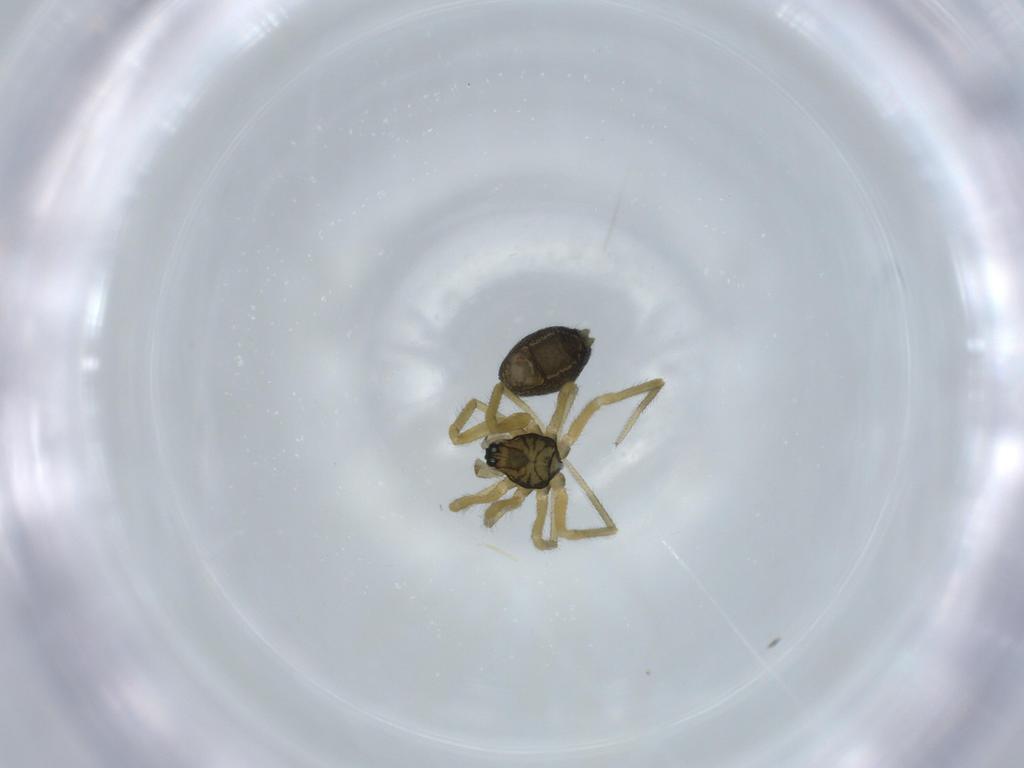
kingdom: Animalia
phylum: Arthropoda
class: Arachnida
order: Araneae
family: Linyphiidae
